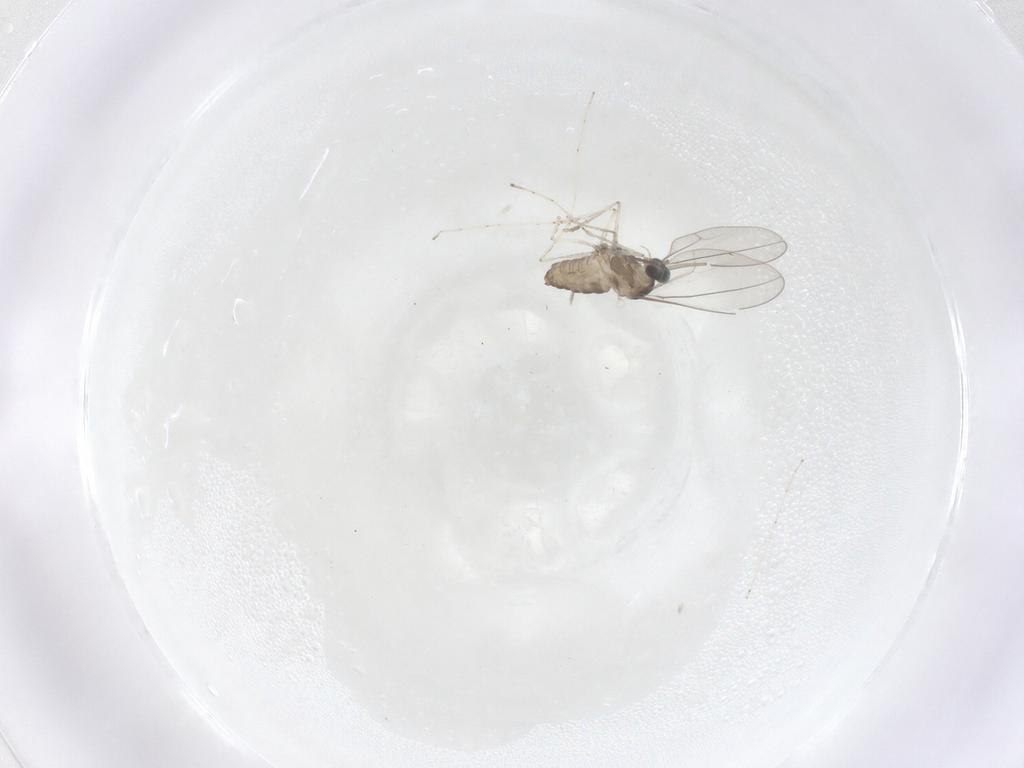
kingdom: Animalia
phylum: Arthropoda
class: Insecta
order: Diptera
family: Cecidomyiidae
